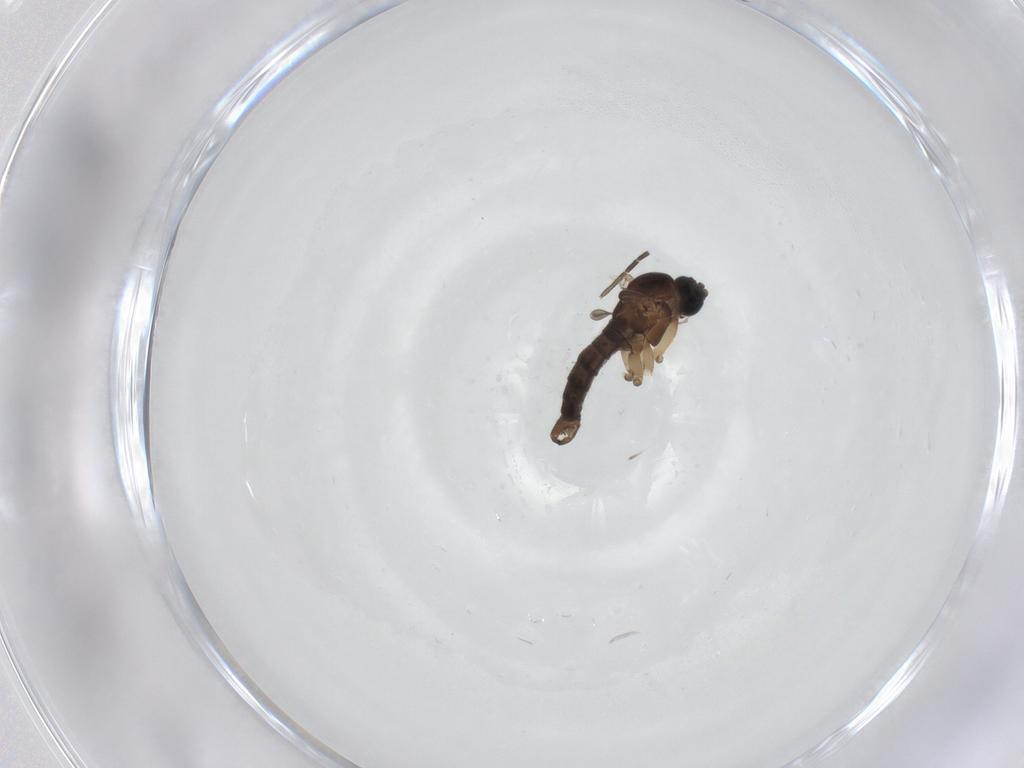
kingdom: Animalia
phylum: Arthropoda
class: Insecta
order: Diptera
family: Sciaridae
